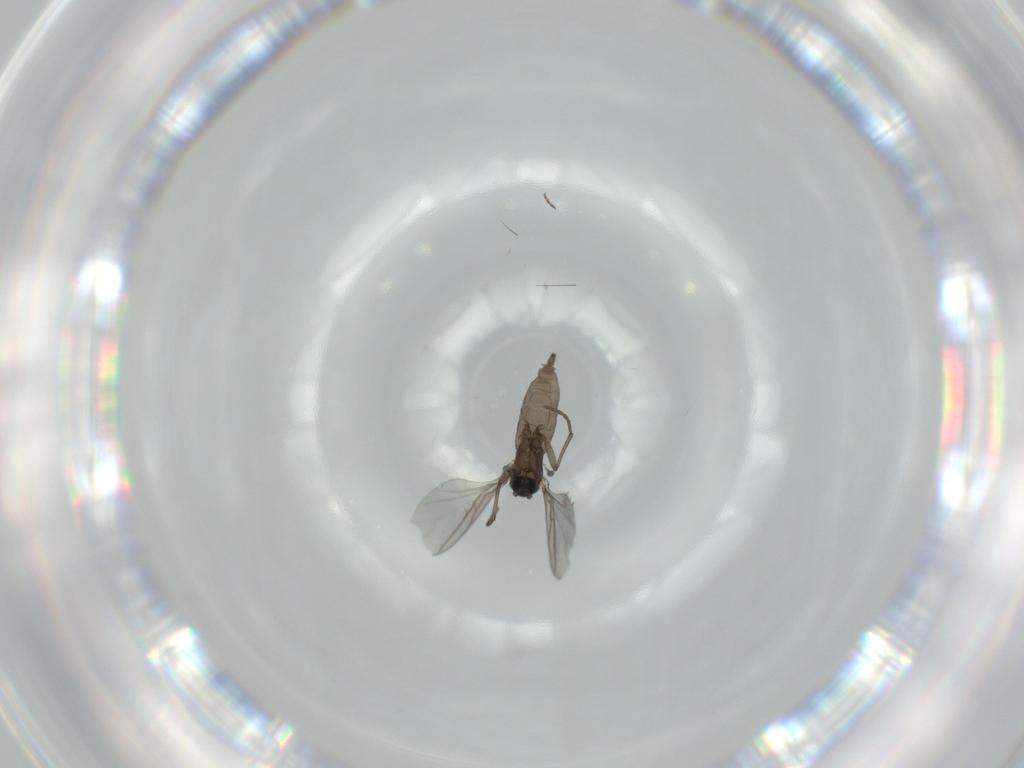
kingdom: Animalia
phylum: Arthropoda
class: Insecta
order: Diptera
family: Sciaridae
